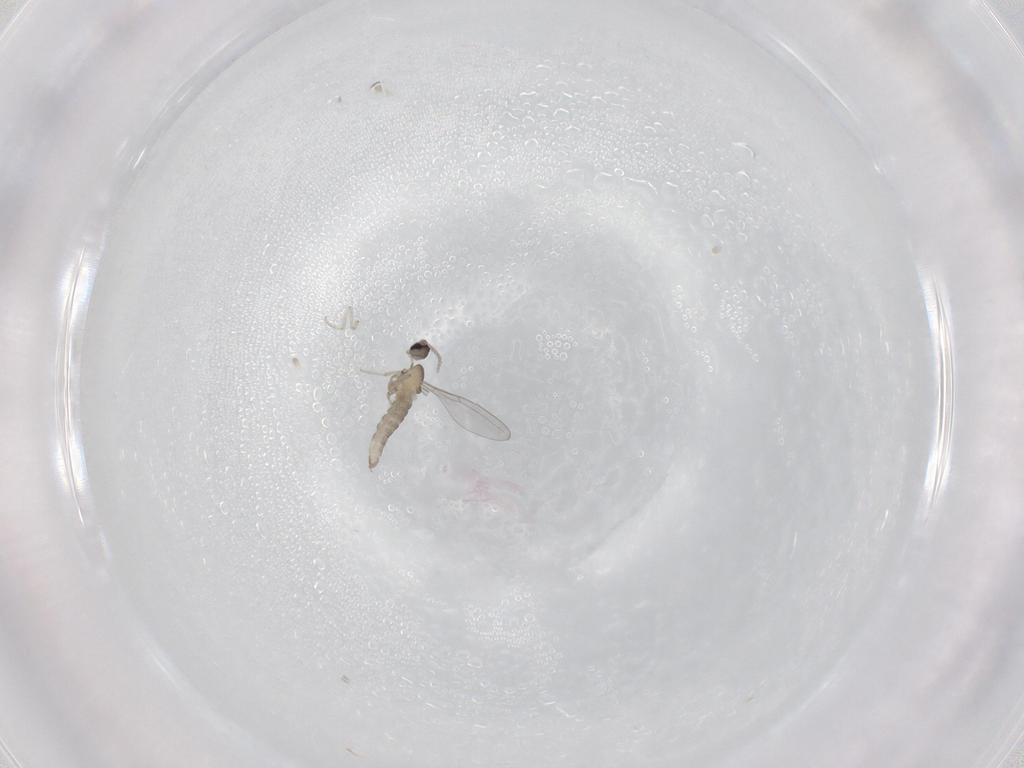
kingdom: Animalia
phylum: Arthropoda
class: Insecta
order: Diptera
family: Cecidomyiidae
